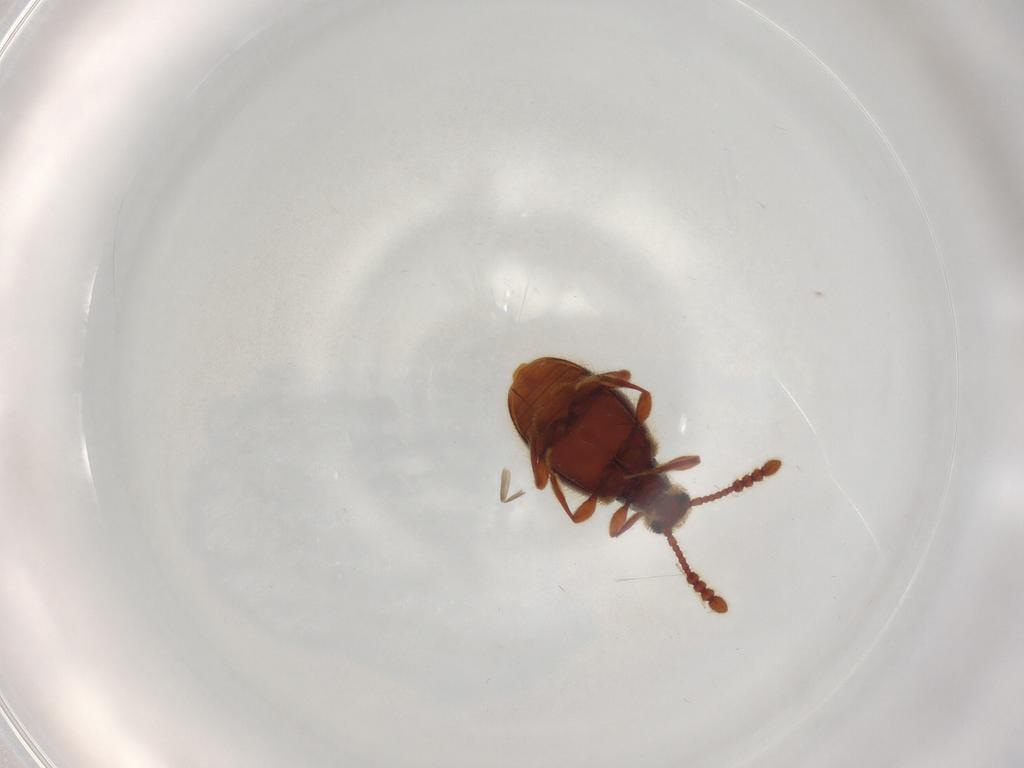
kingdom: Animalia
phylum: Arthropoda
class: Insecta
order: Coleoptera
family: Staphylinidae
